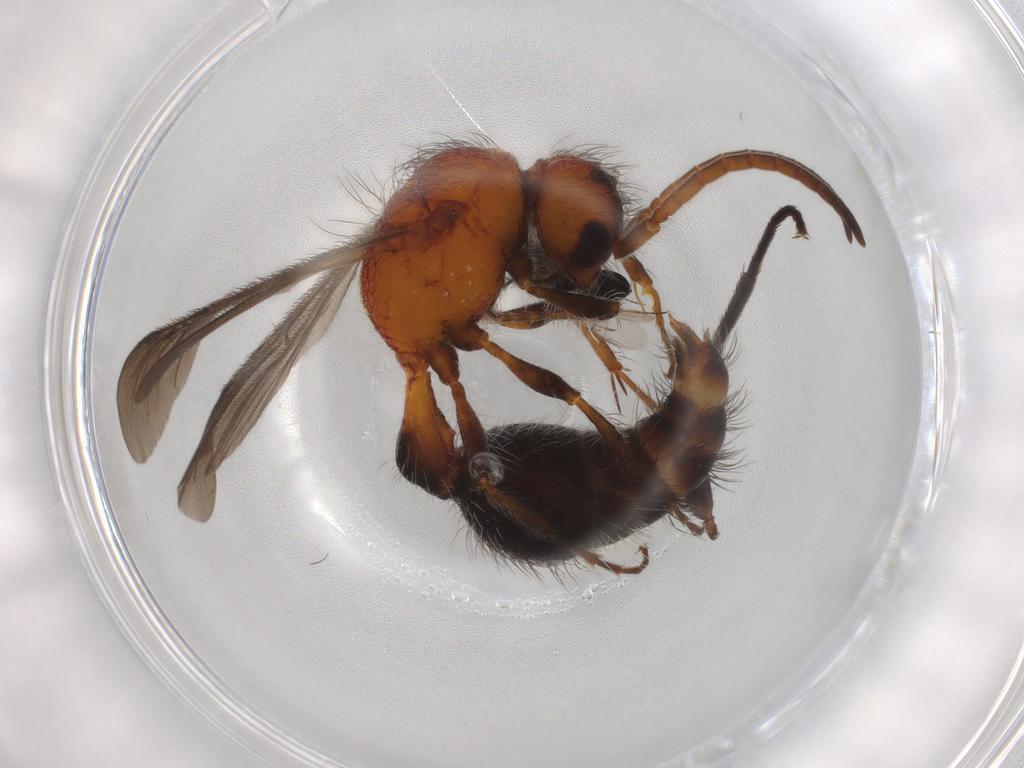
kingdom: Animalia
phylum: Arthropoda
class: Insecta
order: Hymenoptera
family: Mutillidae
